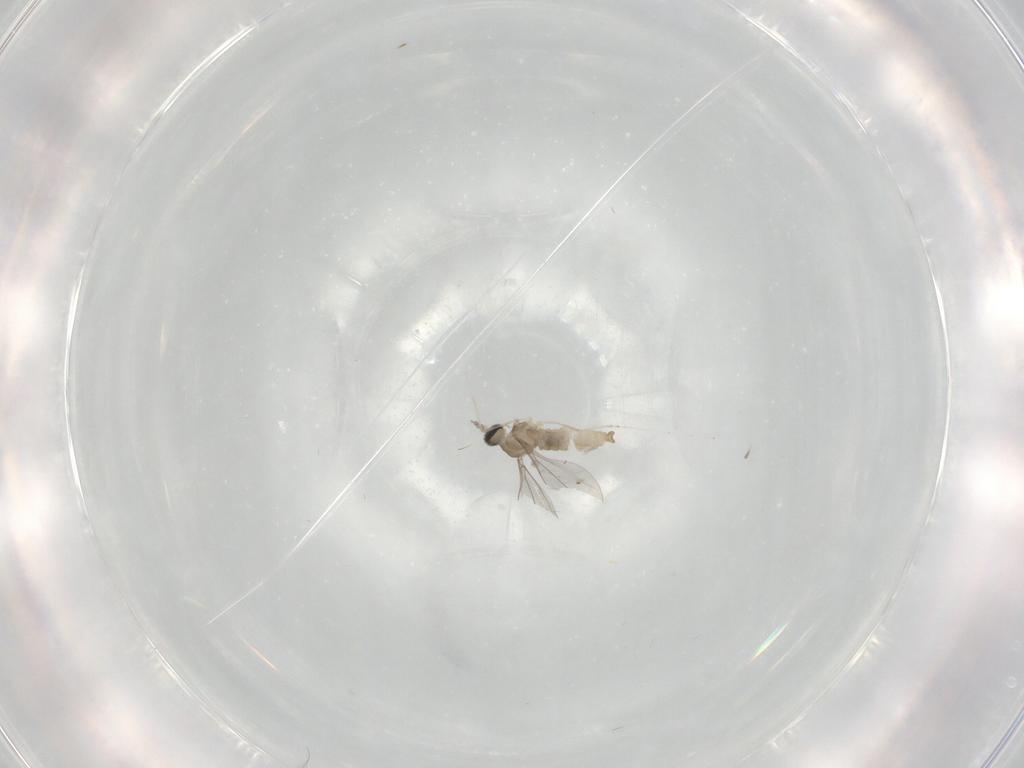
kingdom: Animalia
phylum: Arthropoda
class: Insecta
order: Diptera
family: Cecidomyiidae
